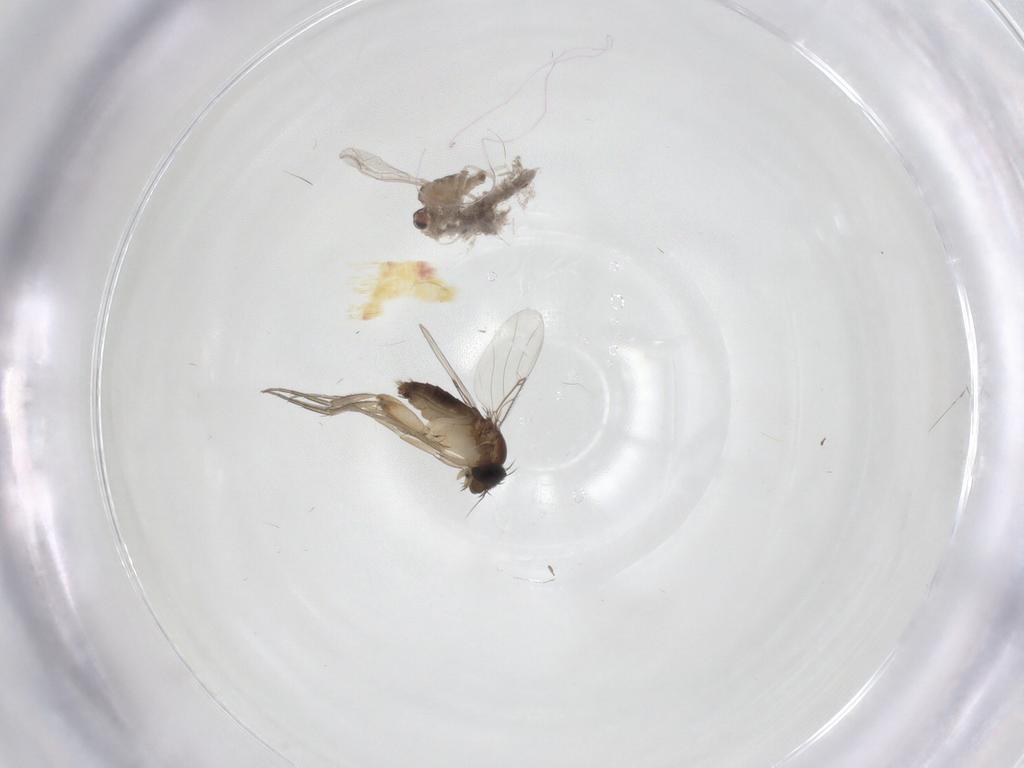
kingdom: Animalia
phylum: Arthropoda
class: Insecta
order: Diptera
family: Phoridae
